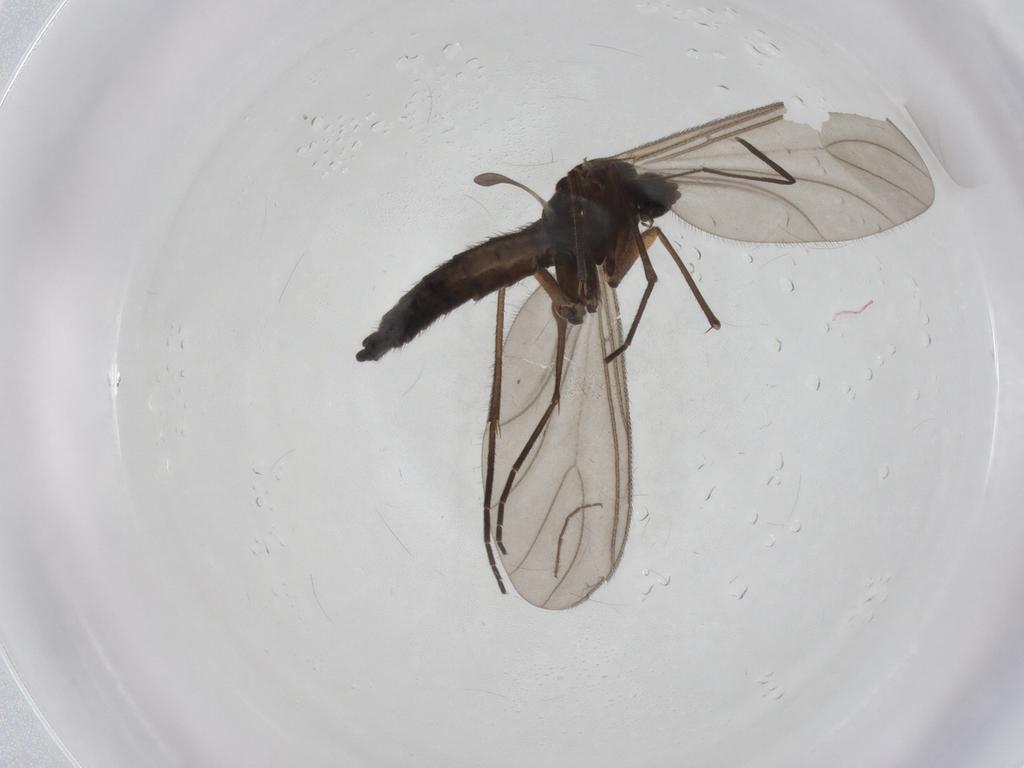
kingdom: Animalia
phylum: Arthropoda
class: Insecta
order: Diptera
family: Sciaridae
